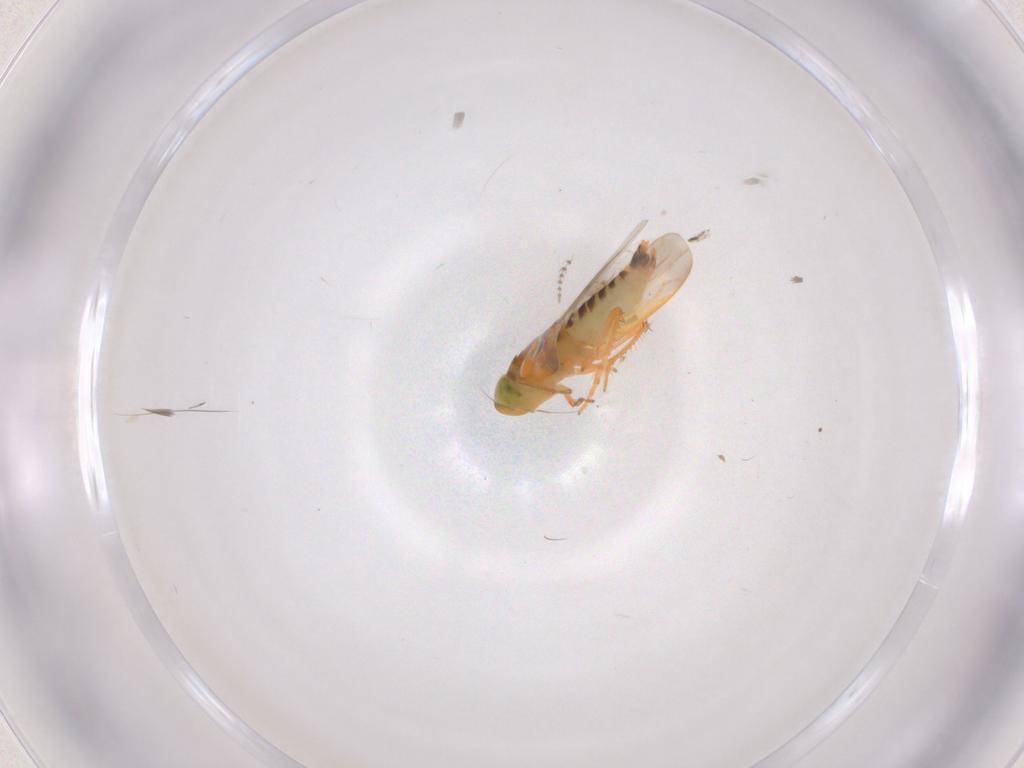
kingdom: Animalia
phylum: Arthropoda
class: Insecta
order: Hemiptera
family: Cicadellidae
